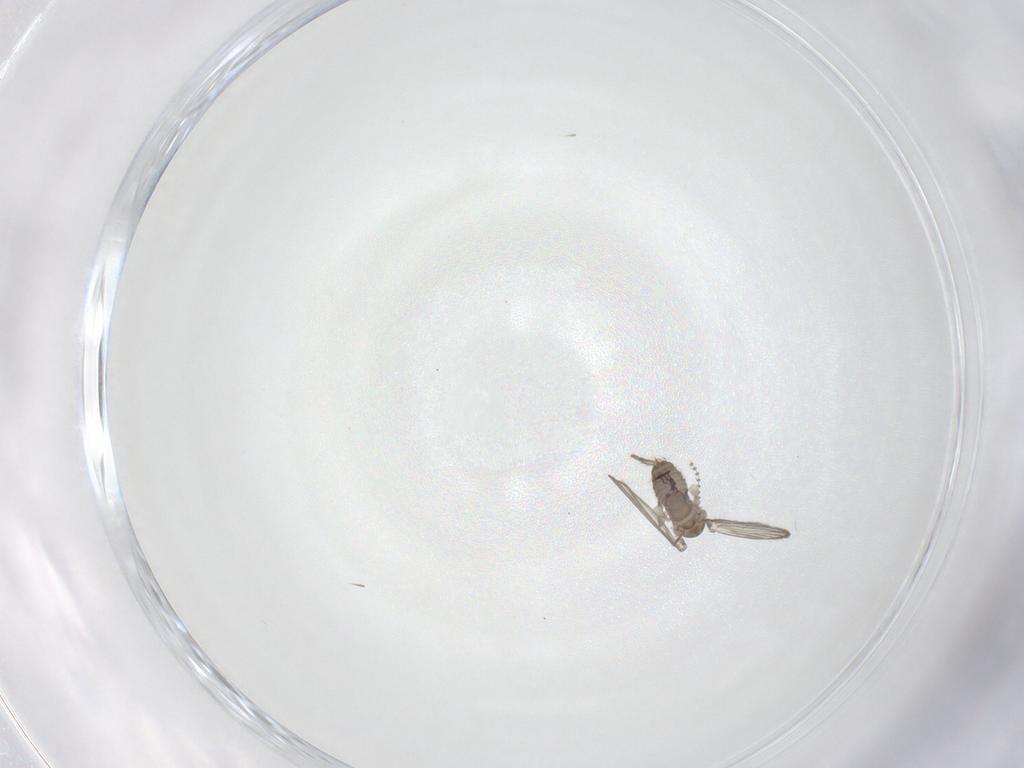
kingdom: Animalia
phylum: Arthropoda
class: Insecta
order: Diptera
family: Psychodidae
